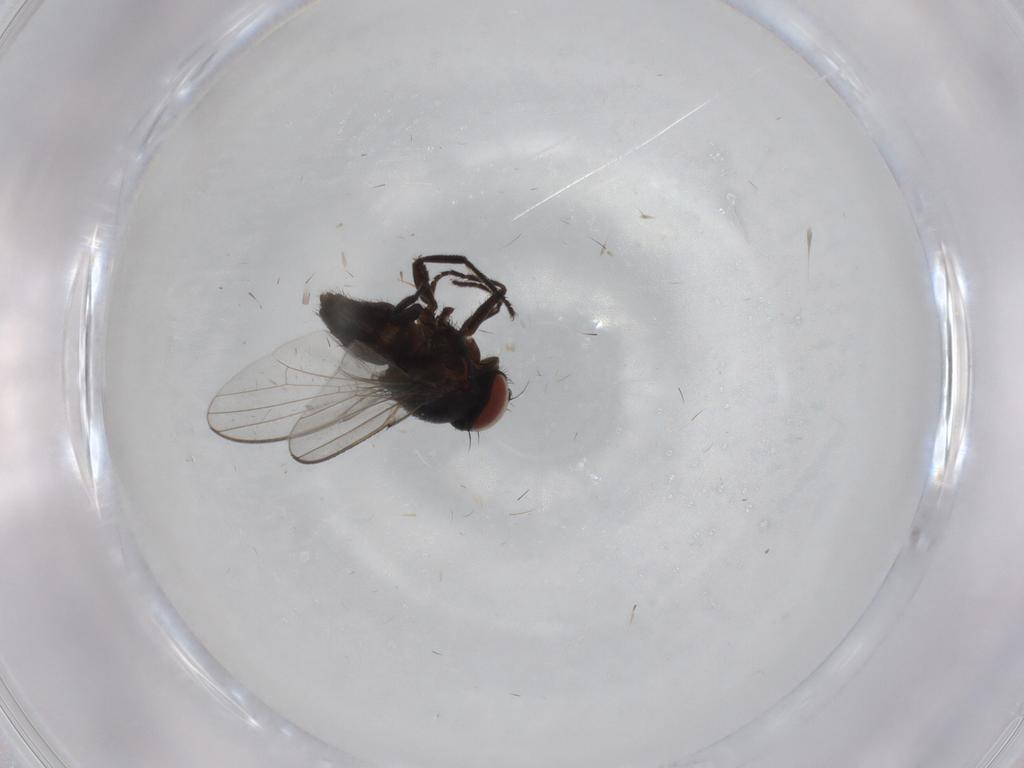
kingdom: Animalia
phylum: Arthropoda
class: Insecta
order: Diptera
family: Milichiidae
